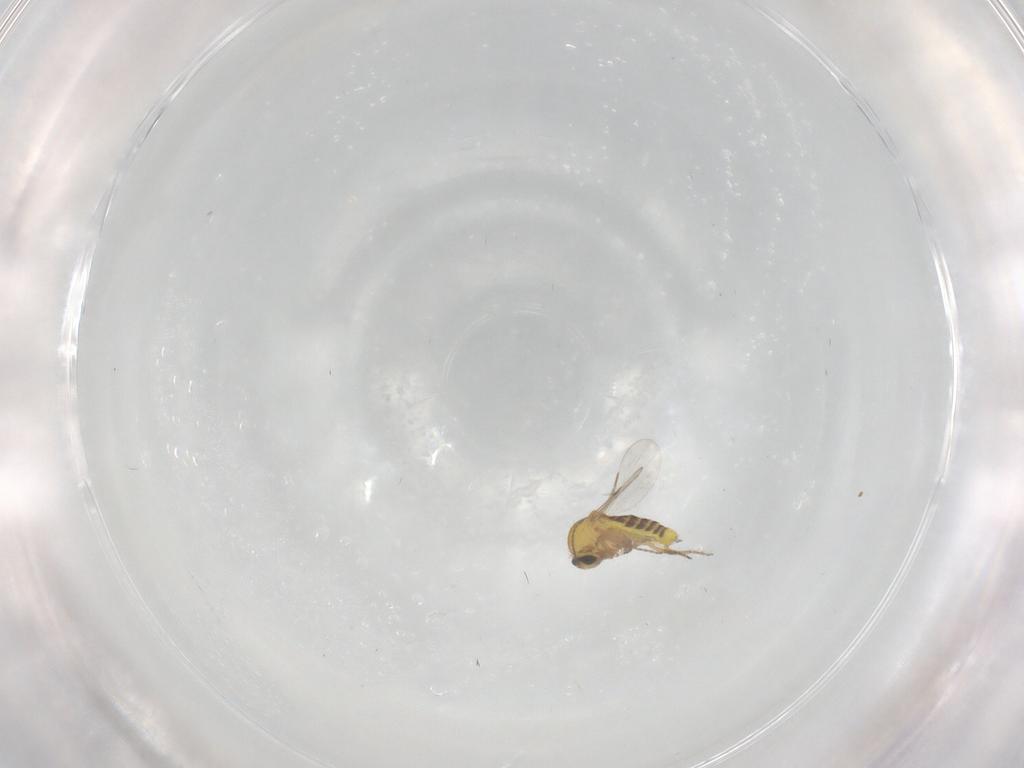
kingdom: Animalia
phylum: Arthropoda
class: Insecta
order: Diptera
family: Ceratopogonidae
